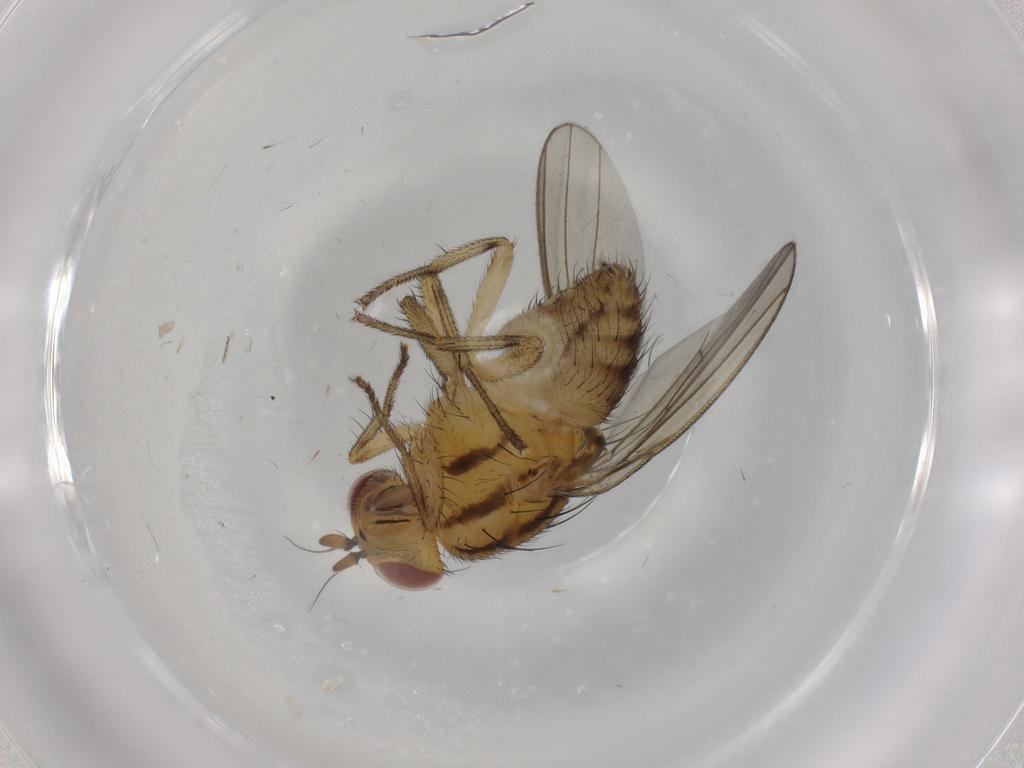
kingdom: Animalia
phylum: Arthropoda
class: Insecta
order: Diptera
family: Chironomidae
